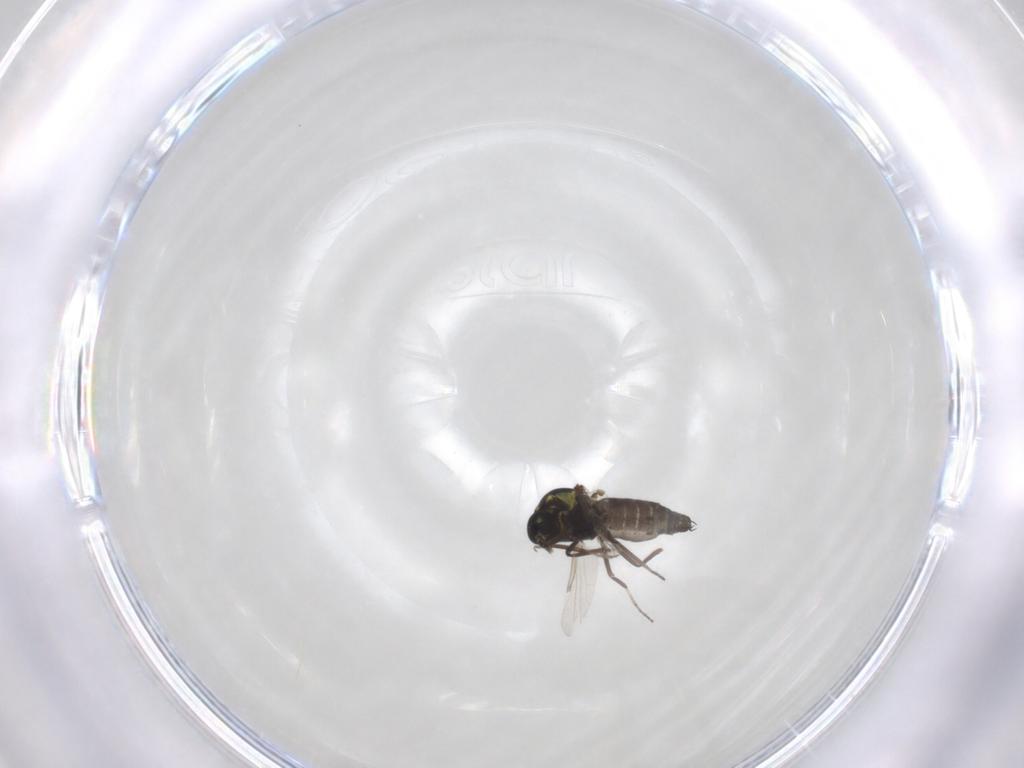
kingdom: Animalia
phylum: Arthropoda
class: Insecta
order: Diptera
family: Ceratopogonidae
